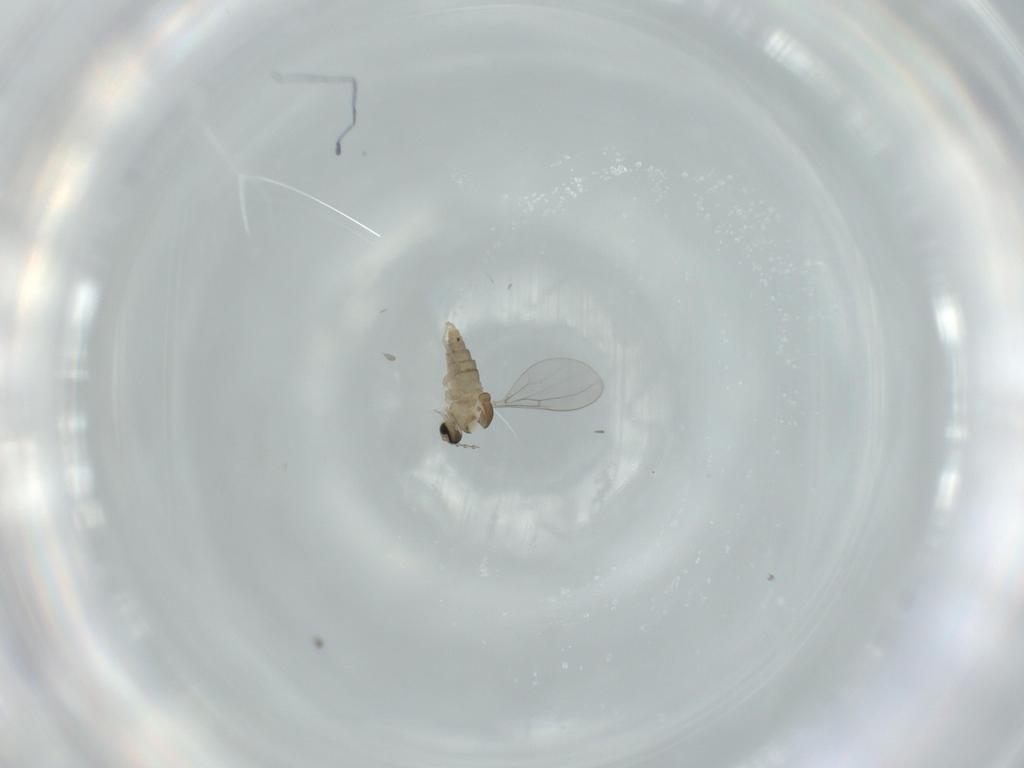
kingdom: Animalia
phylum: Arthropoda
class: Insecta
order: Diptera
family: Cecidomyiidae
